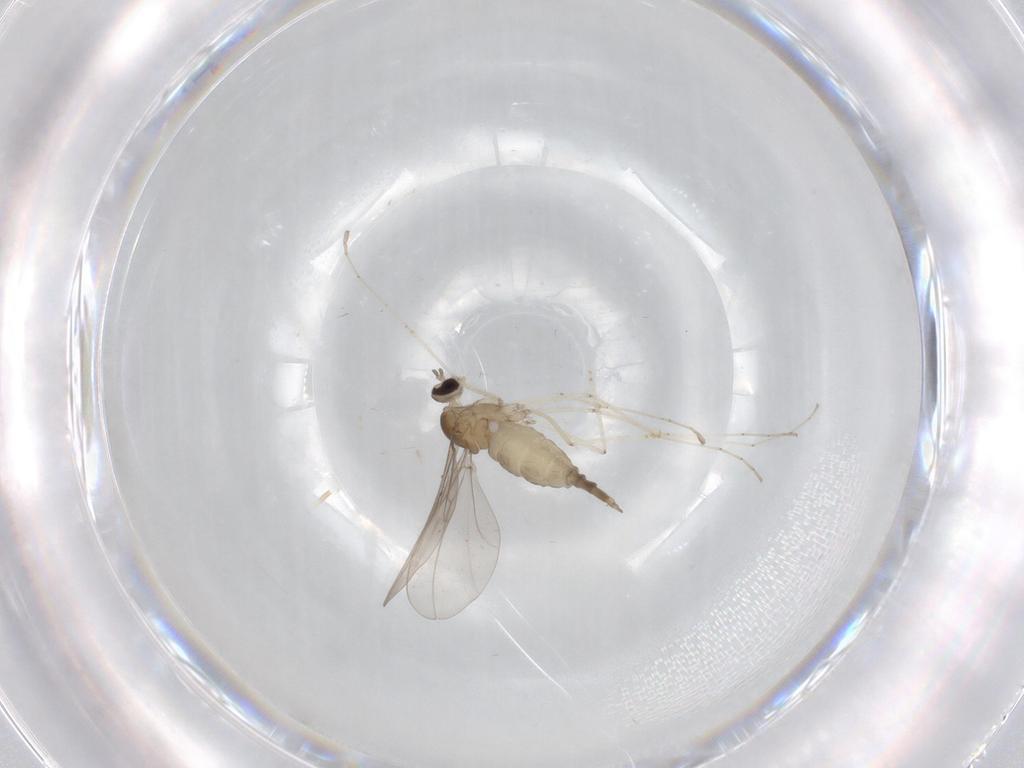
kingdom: Animalia
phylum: Arthropoda
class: Insecta
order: Diptera
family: Cecidomyiidae
